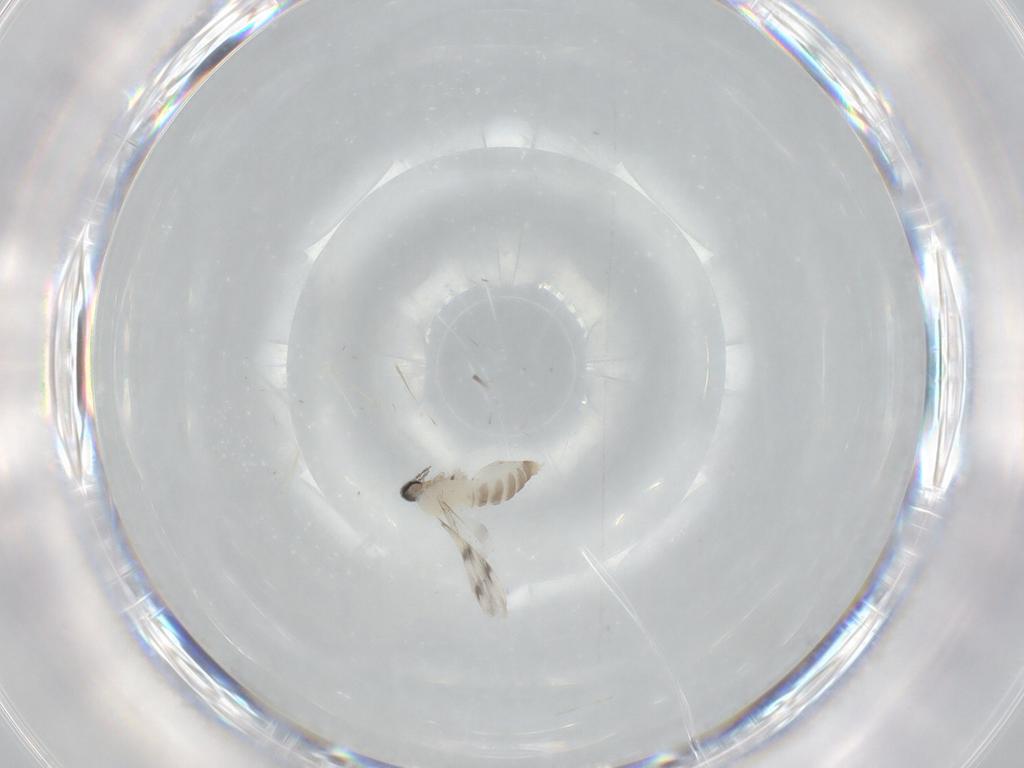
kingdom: Animalia
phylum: Arthropoda
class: Insecta
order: Diptera
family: Cecidomyiidae
